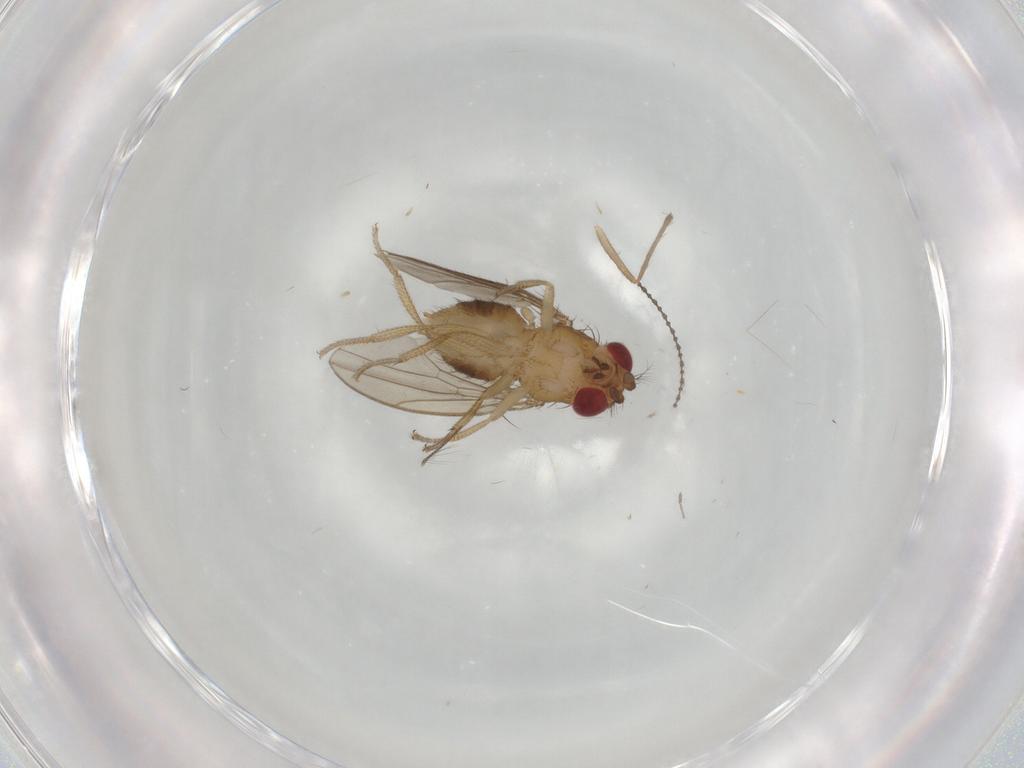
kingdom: Animalia
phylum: Arthropoda
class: Insecta
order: Diptera
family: Drosophilidae
